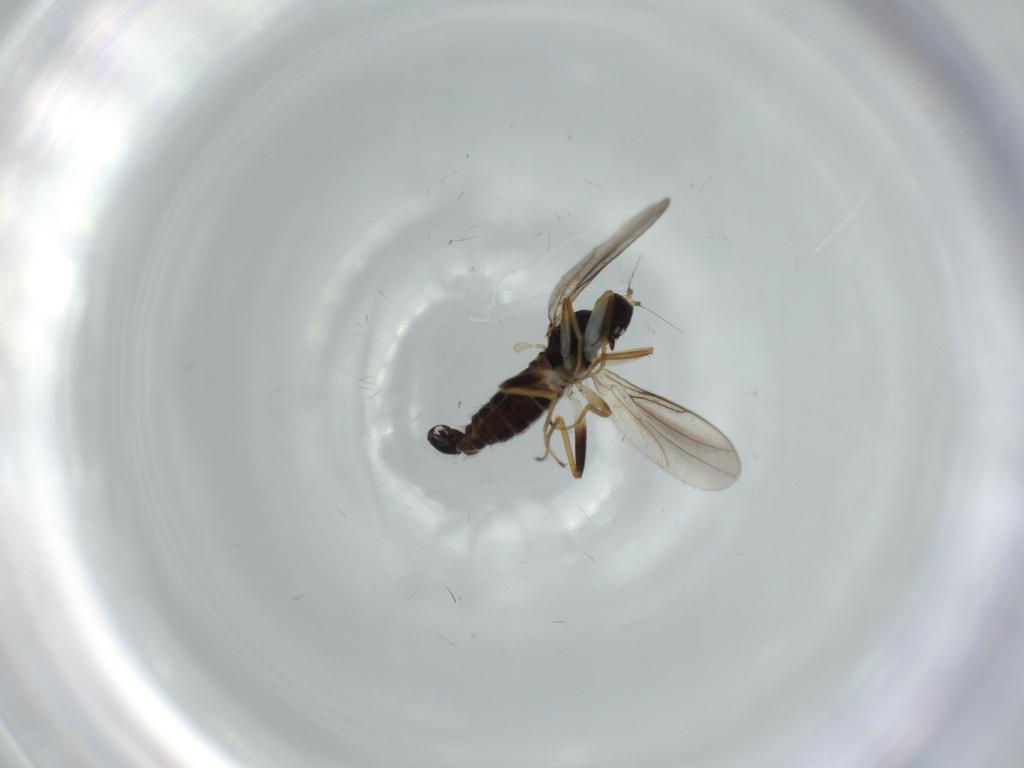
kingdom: Animalia
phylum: Arthropoda
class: Insecta
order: Diptera
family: Hybotidae
